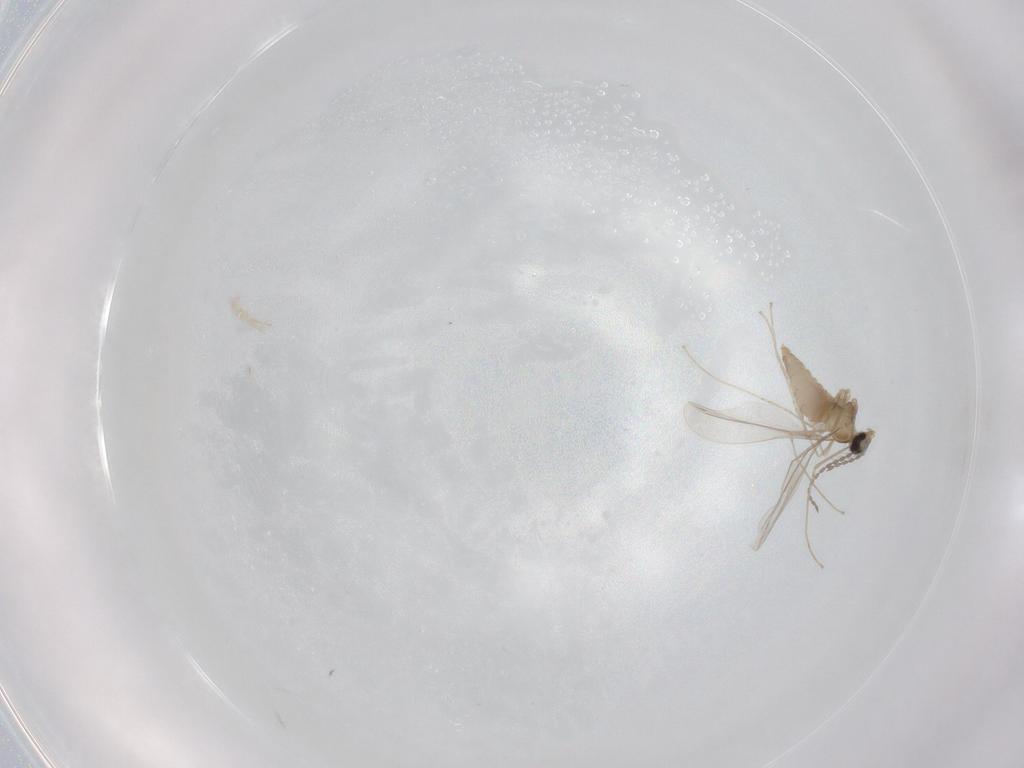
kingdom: Animalia
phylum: Arthropoda
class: Insecta
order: Diptera
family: Cecidomyiidae
